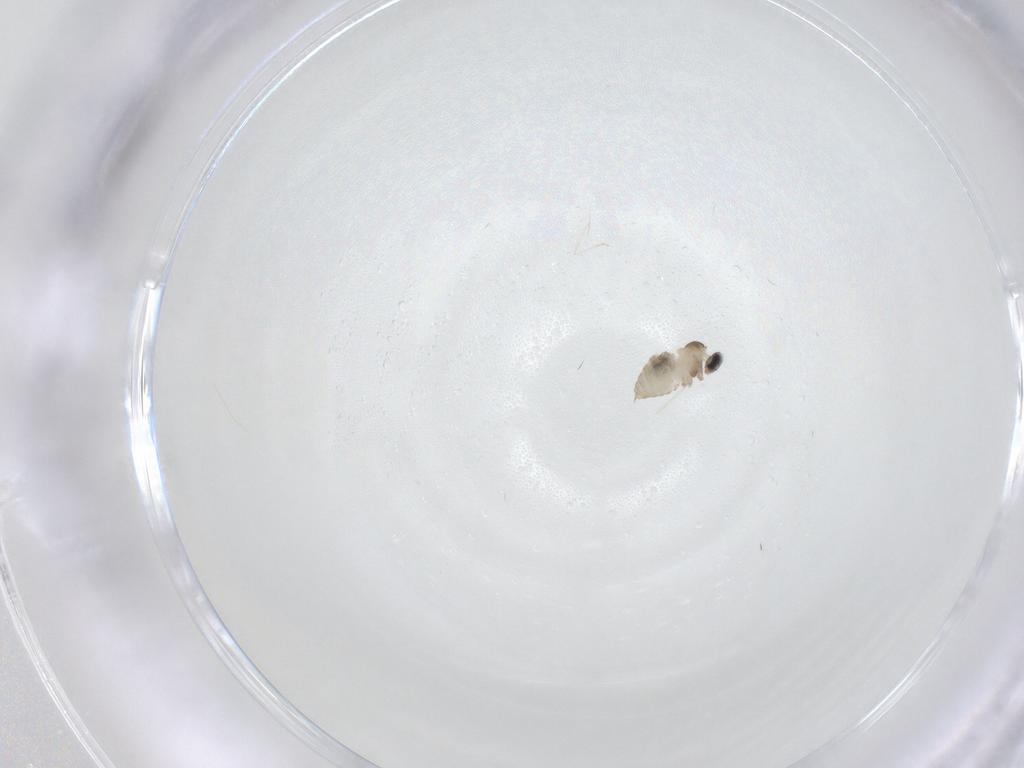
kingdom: Animalia
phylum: Arthropoda
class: Insecta
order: Diptera
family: Cecidomyiidae
